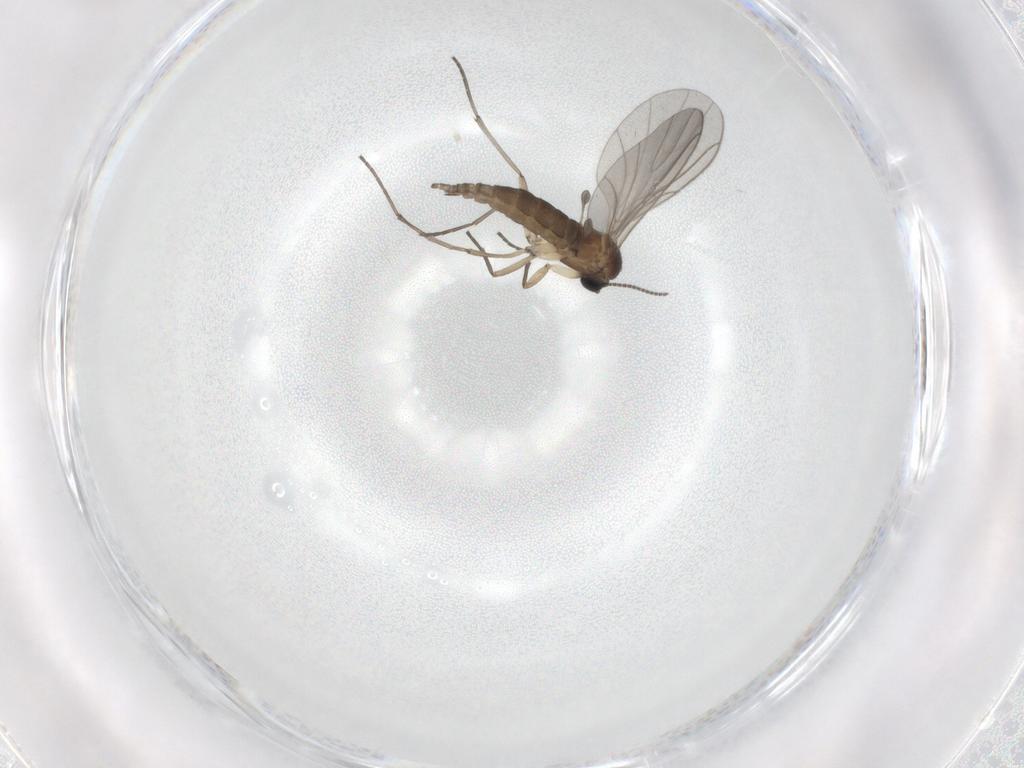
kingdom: Animalia
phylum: Arthropoda
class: Insecta
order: Diptera
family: Sciaridae
